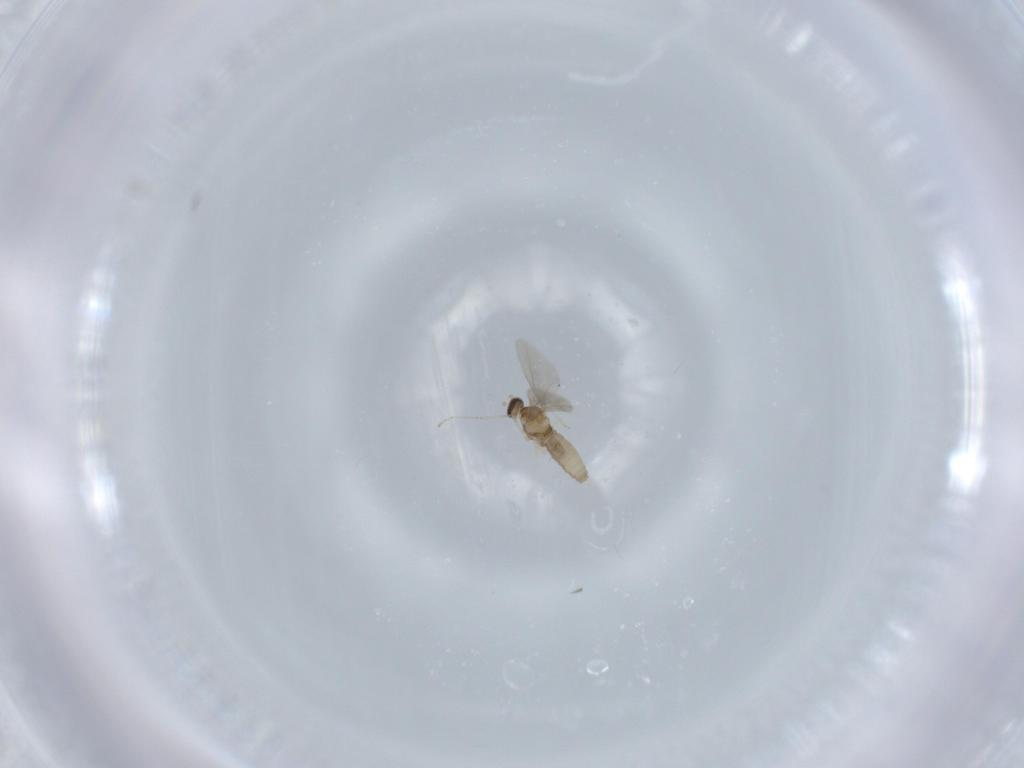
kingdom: Animalia
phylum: Arthropoda
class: Insecta
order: Diptera
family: Cecidomyiidae
